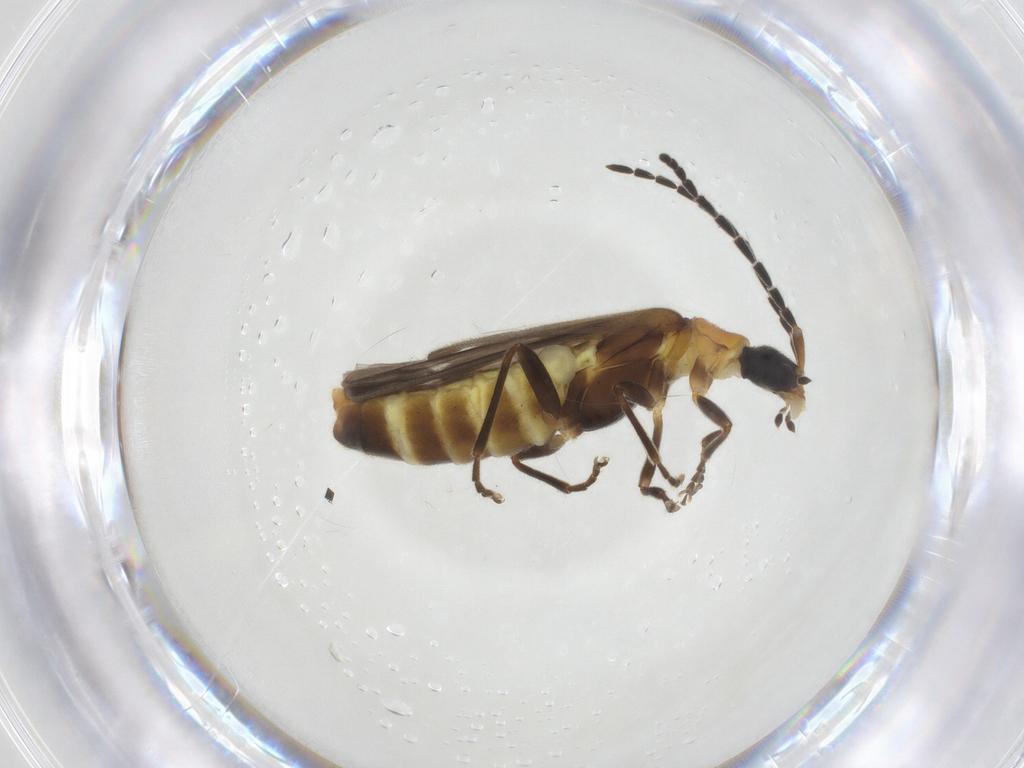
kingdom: Animalia
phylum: Arthropoda
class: Insecta
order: Coleoptera
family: Cantharidae
